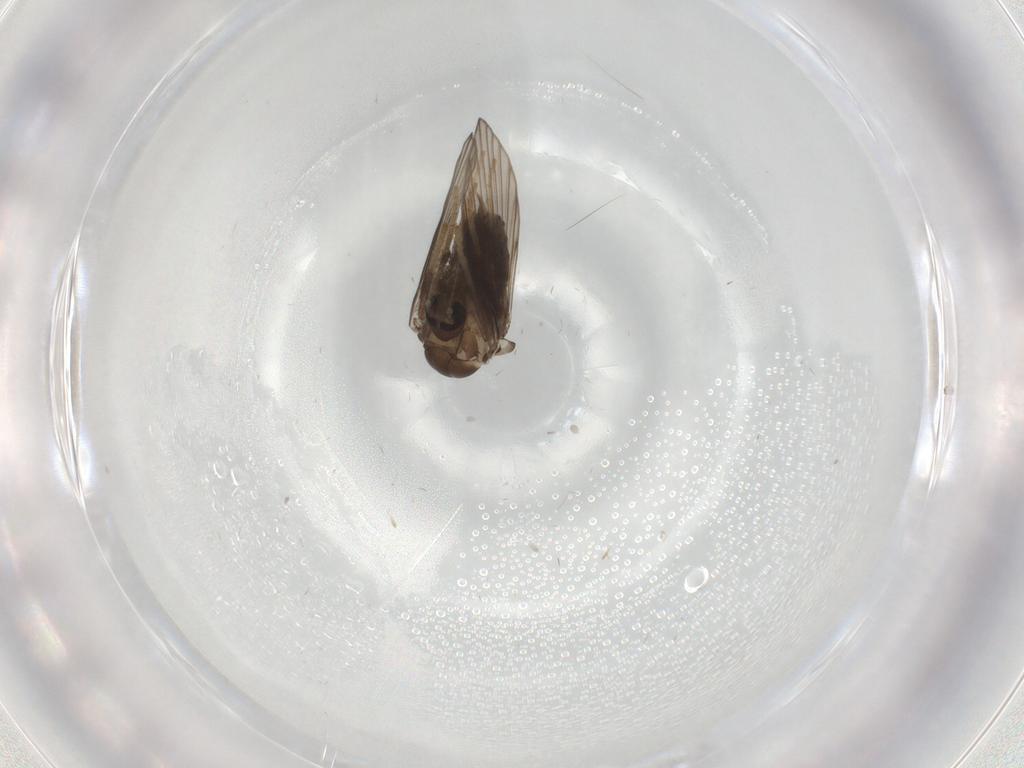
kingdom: Animalia
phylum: Arthropoda
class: Insecta
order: Diptera
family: Psychodidae
